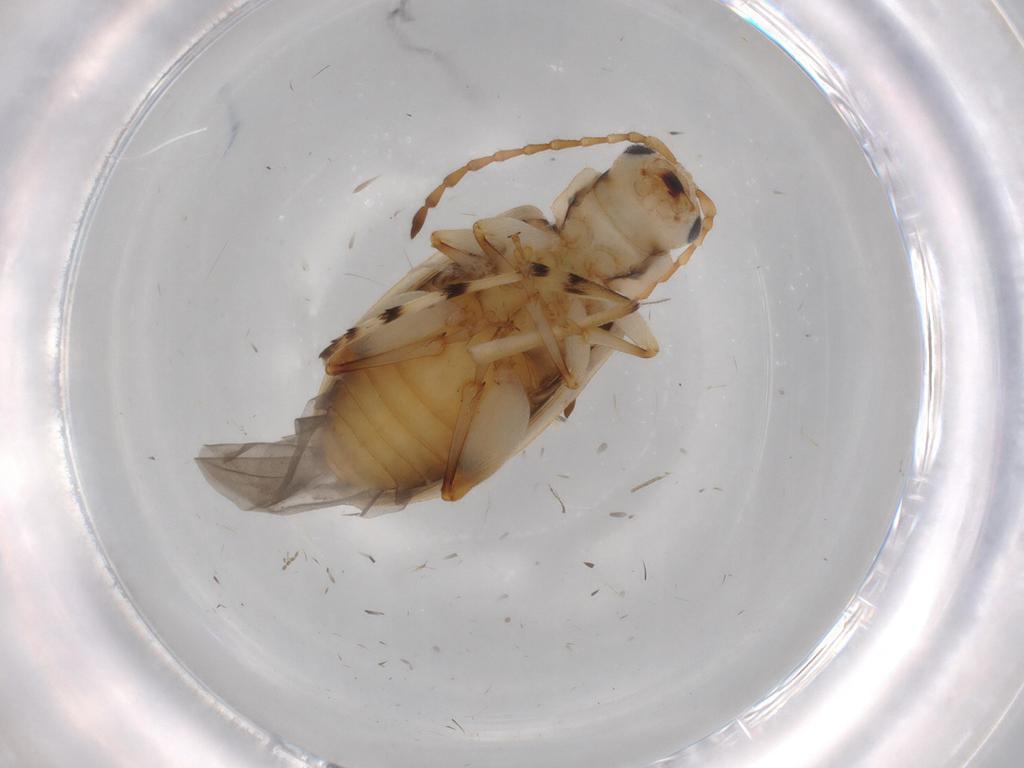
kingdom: Animalia
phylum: Arthropoda
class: Insecta
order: Coleoptera
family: Chrysomelidae
